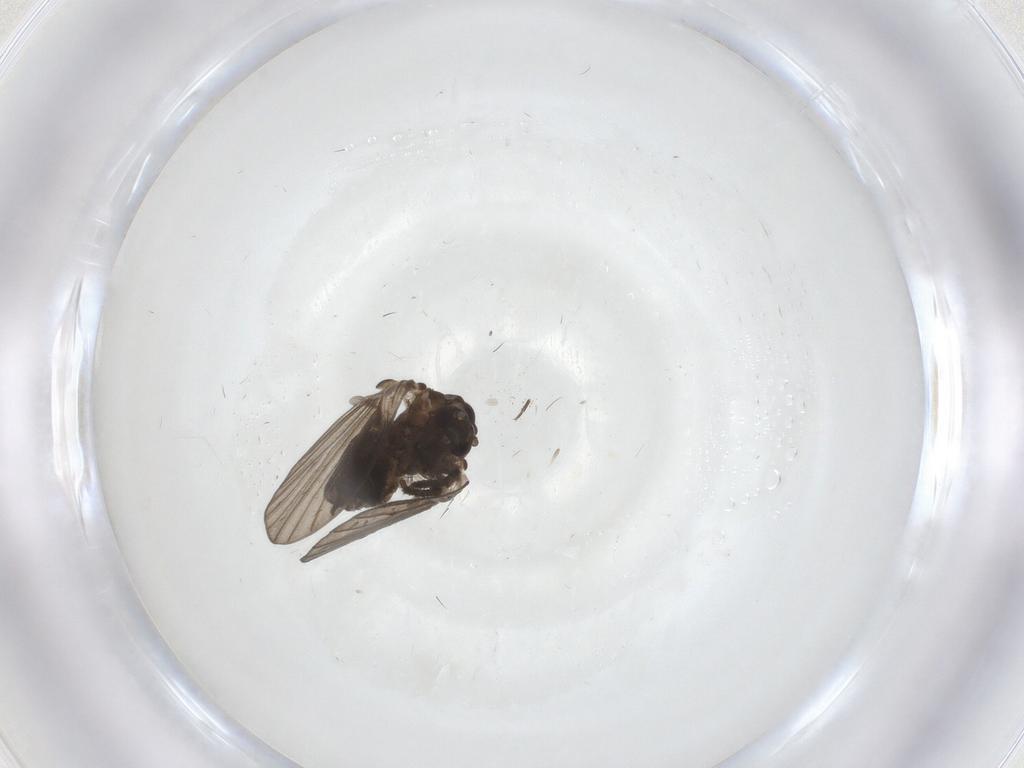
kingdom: Animalia
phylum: Arthropoda
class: Insecta
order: Diptera
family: Psychodidae
